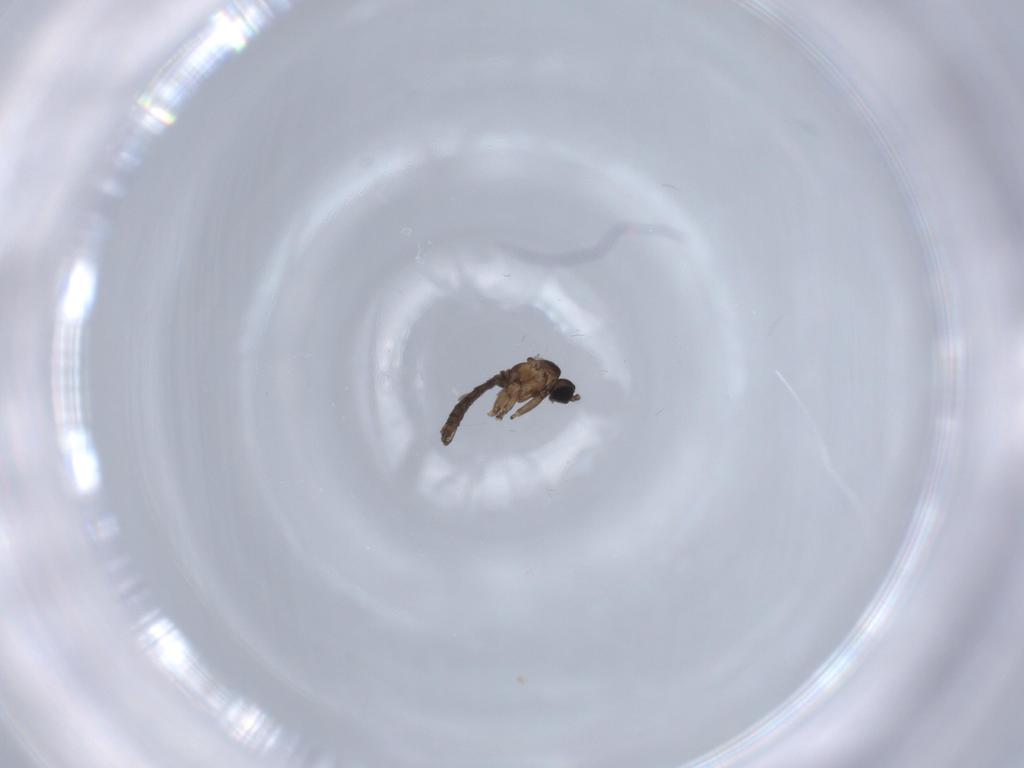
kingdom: Animalia
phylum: Arthropoda
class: Insecta
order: Diptera
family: Sciaridae
